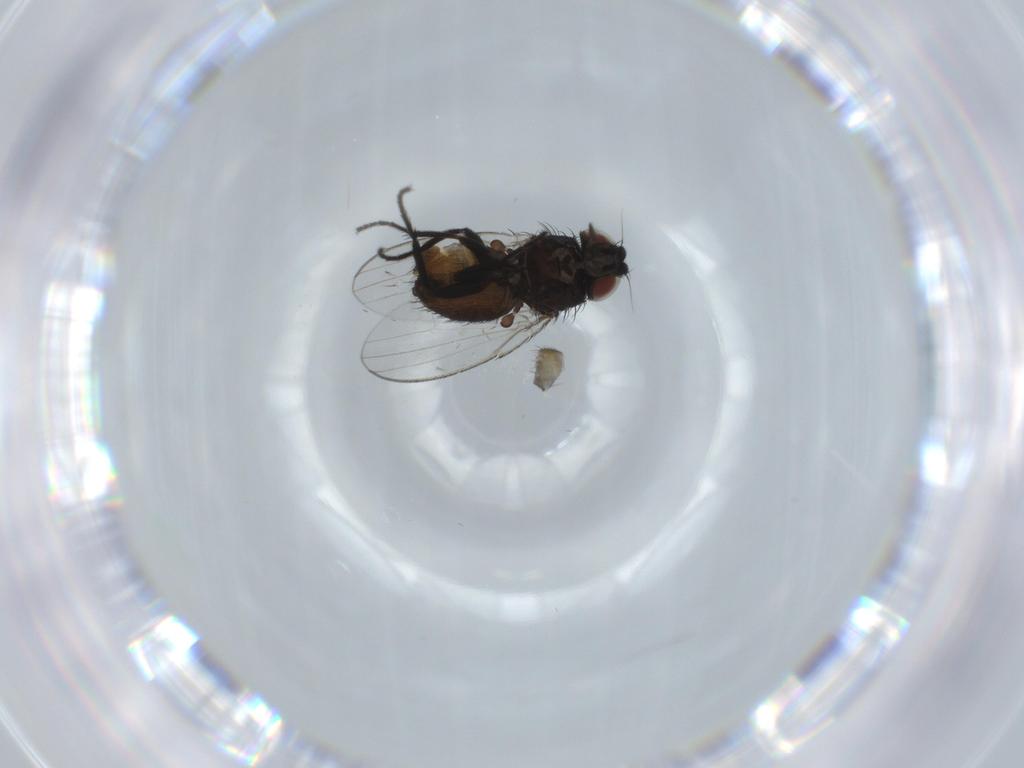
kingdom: Animalia
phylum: Arthropoda
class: Insecta
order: Diptera
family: Milichiidae
